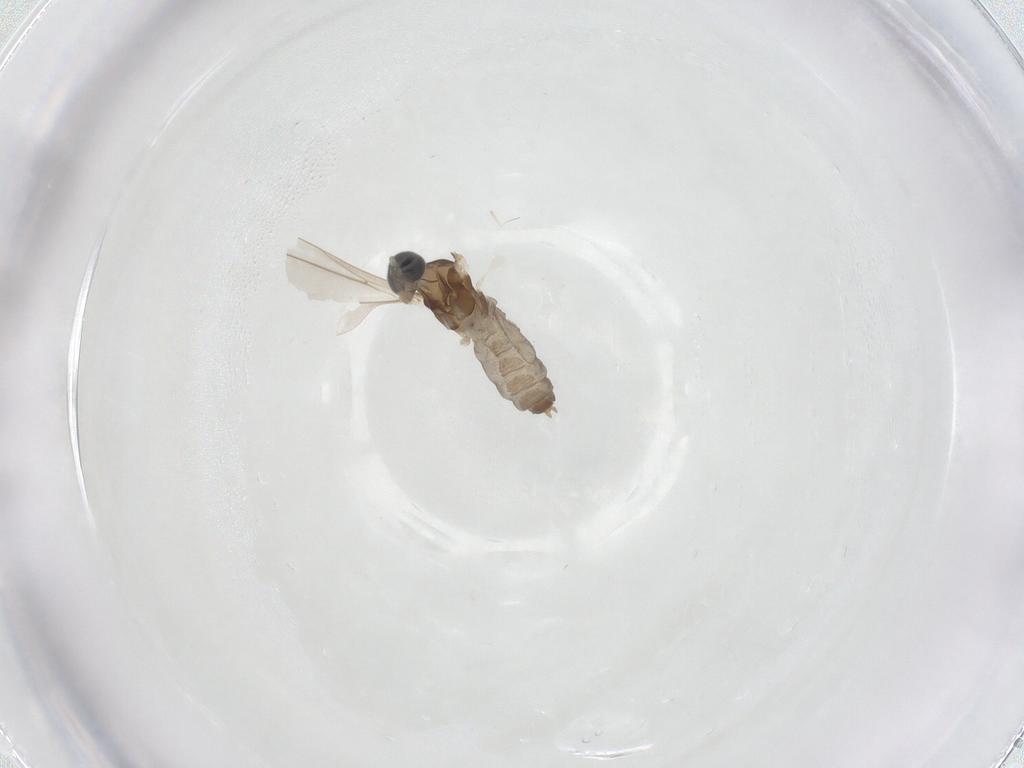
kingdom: Animalia
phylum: Arthropoda
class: Insecta
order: Diptera
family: Cecidomyiidae
